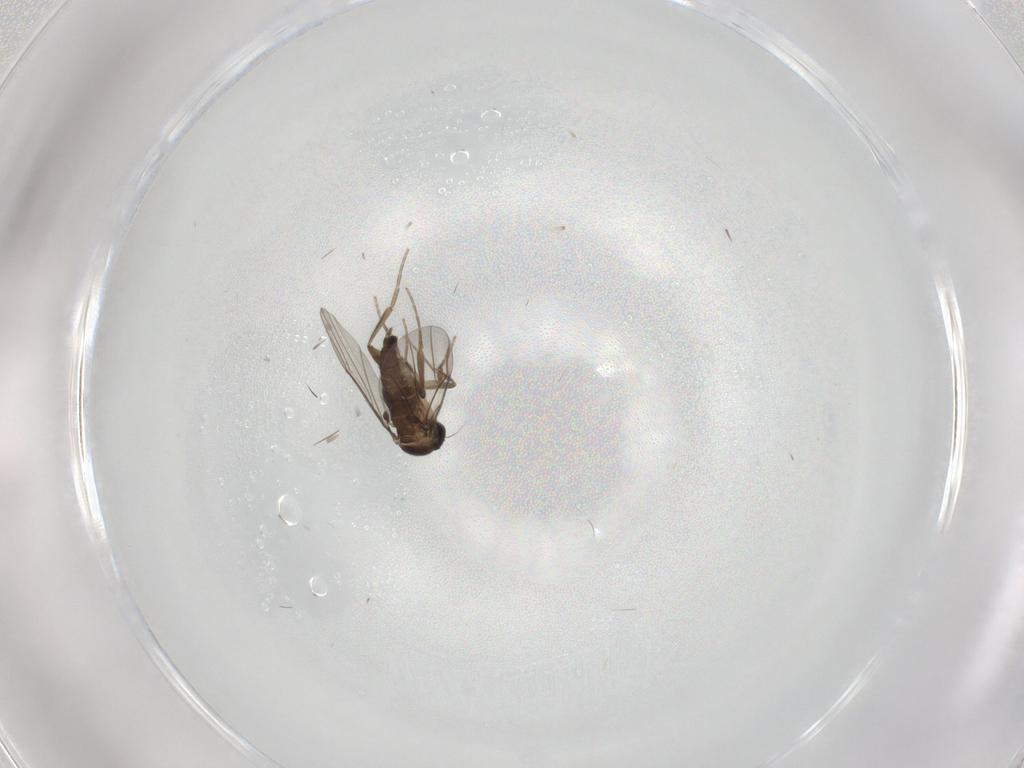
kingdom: Animalia
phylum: Arthropoda
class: Insecta
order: Diptera
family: Phoridae
